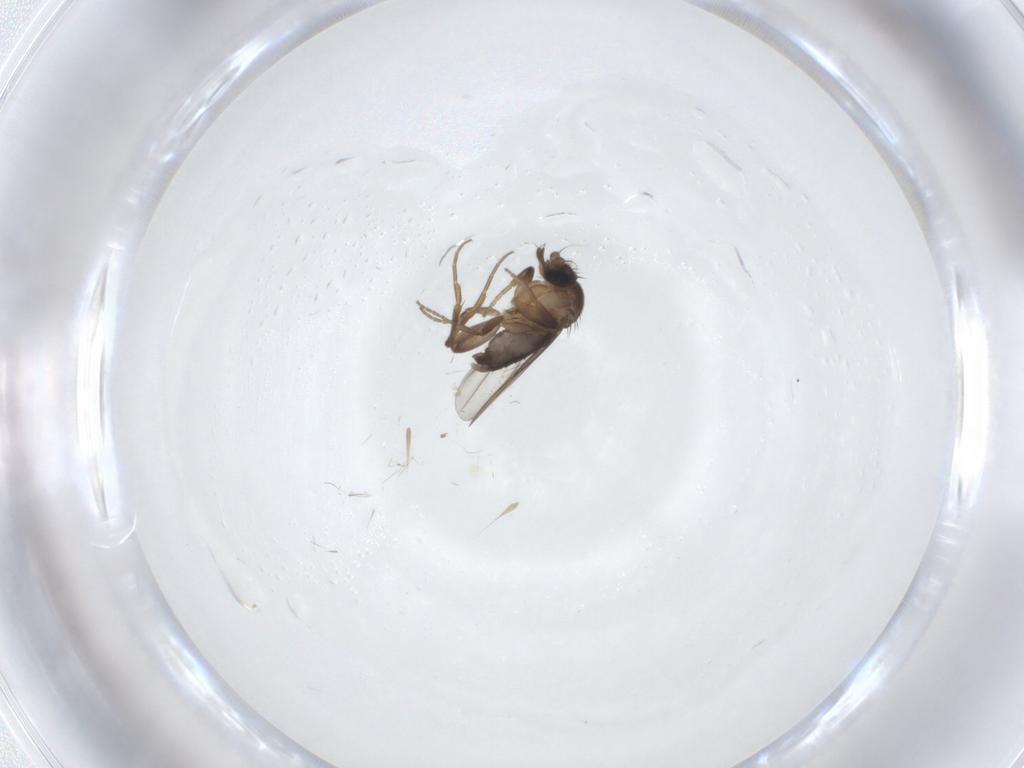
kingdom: Animalia
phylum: Arthropoda
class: Insecta
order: Diptera
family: Phoridae
